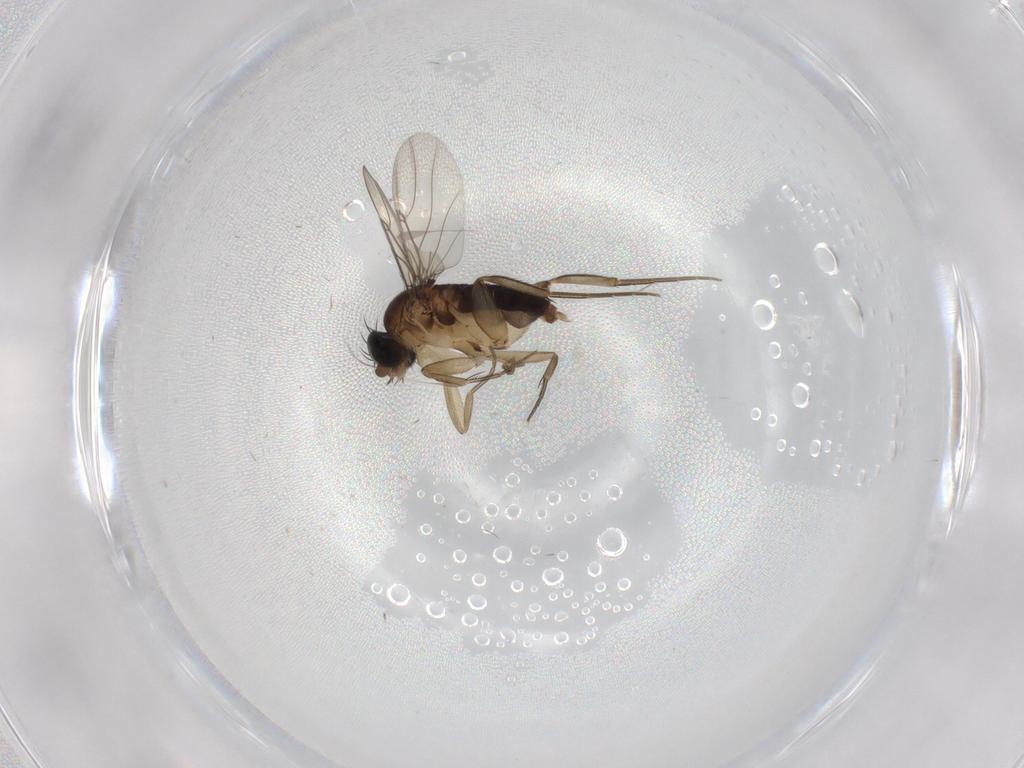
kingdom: Animalia
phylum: Arthropoda
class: Insecta
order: Diptera
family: Phoridae
